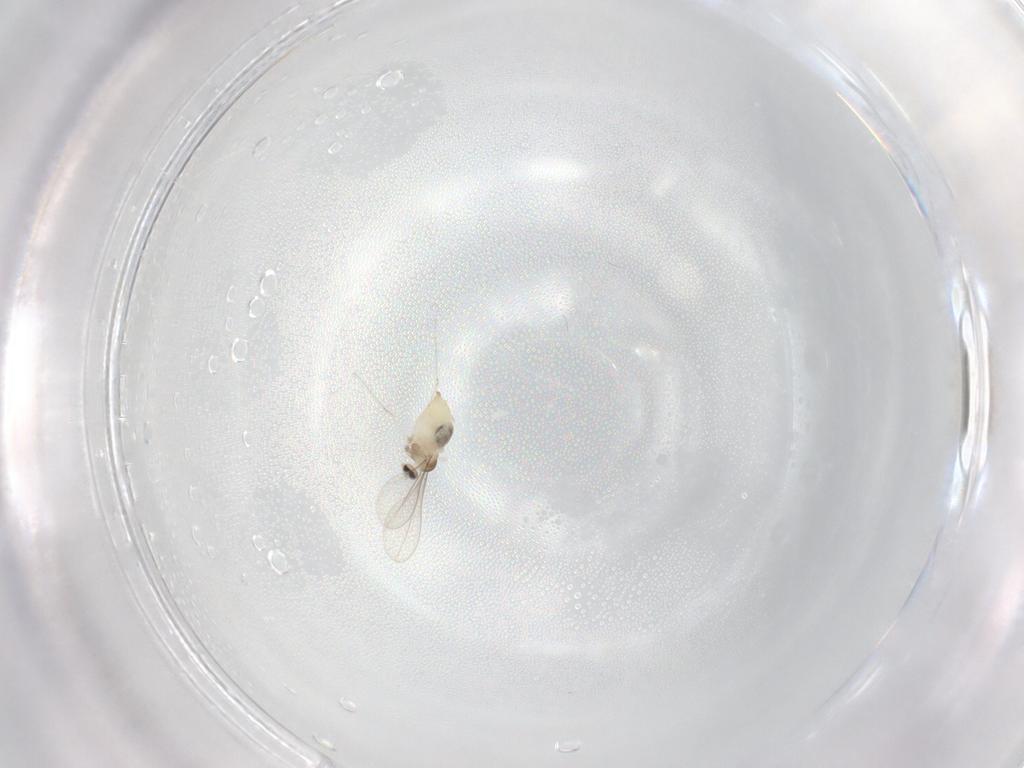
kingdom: Animalia
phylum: Arthropoda
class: Insecta
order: Diptera
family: Cecidomyiidae
